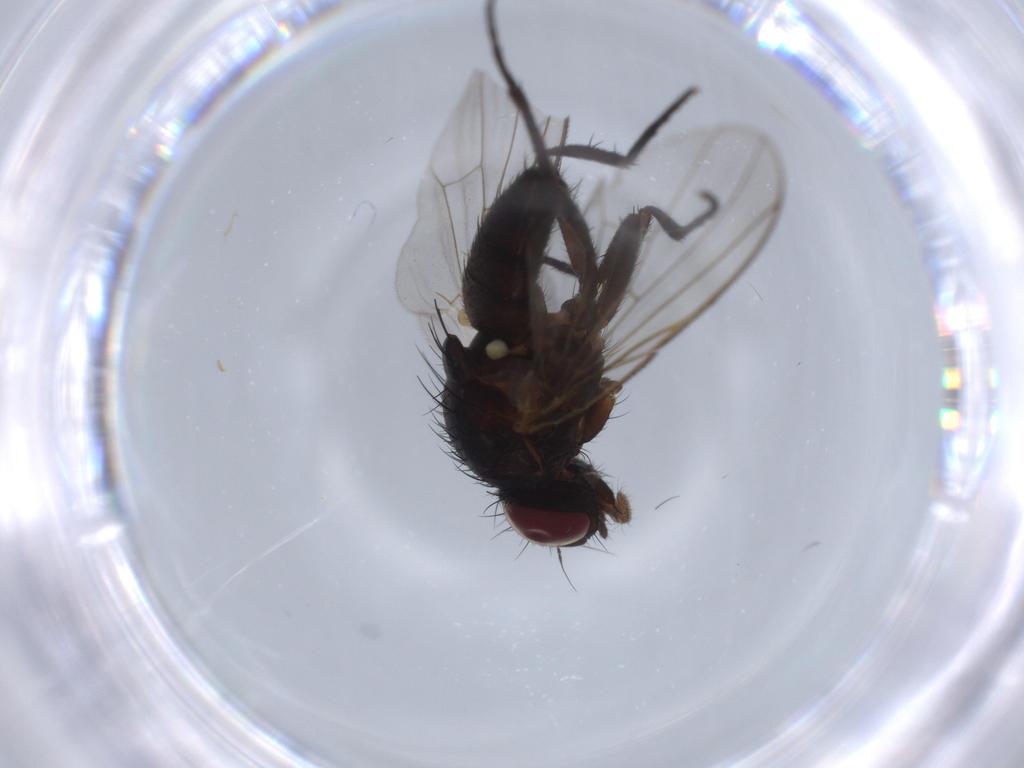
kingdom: Animalia
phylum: Arthropoda
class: Insecta
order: Diptera
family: Fannia
